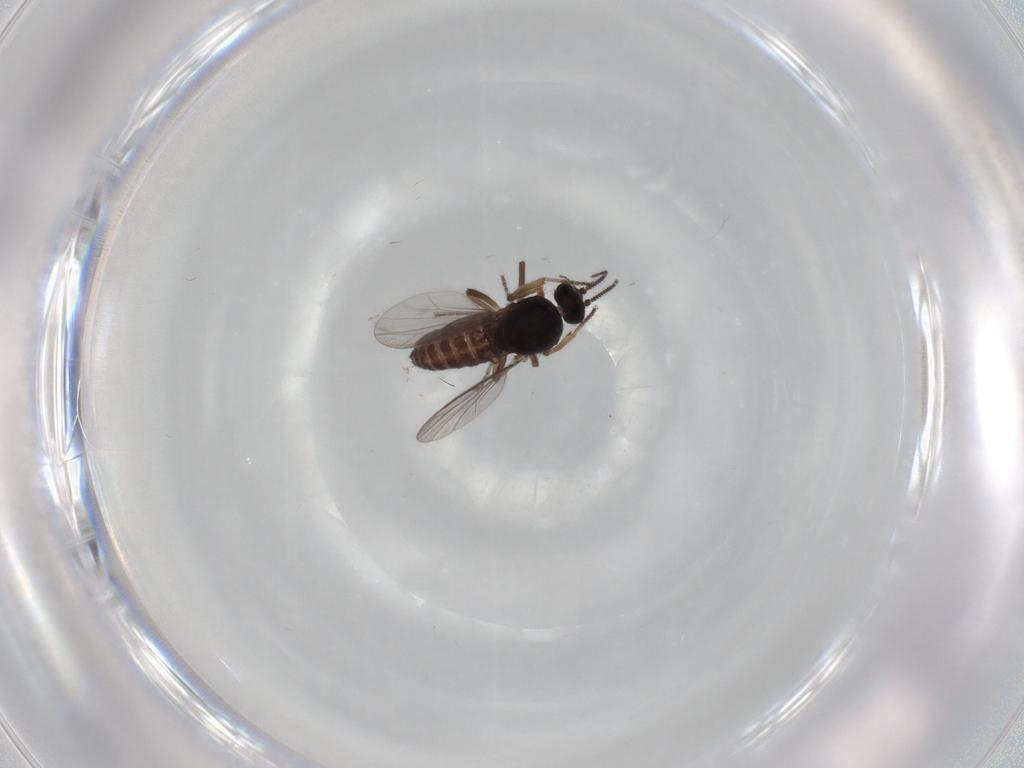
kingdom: Animalia
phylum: Arthropoda
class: Insecta
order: Diptera
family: Ceratopogonidae
